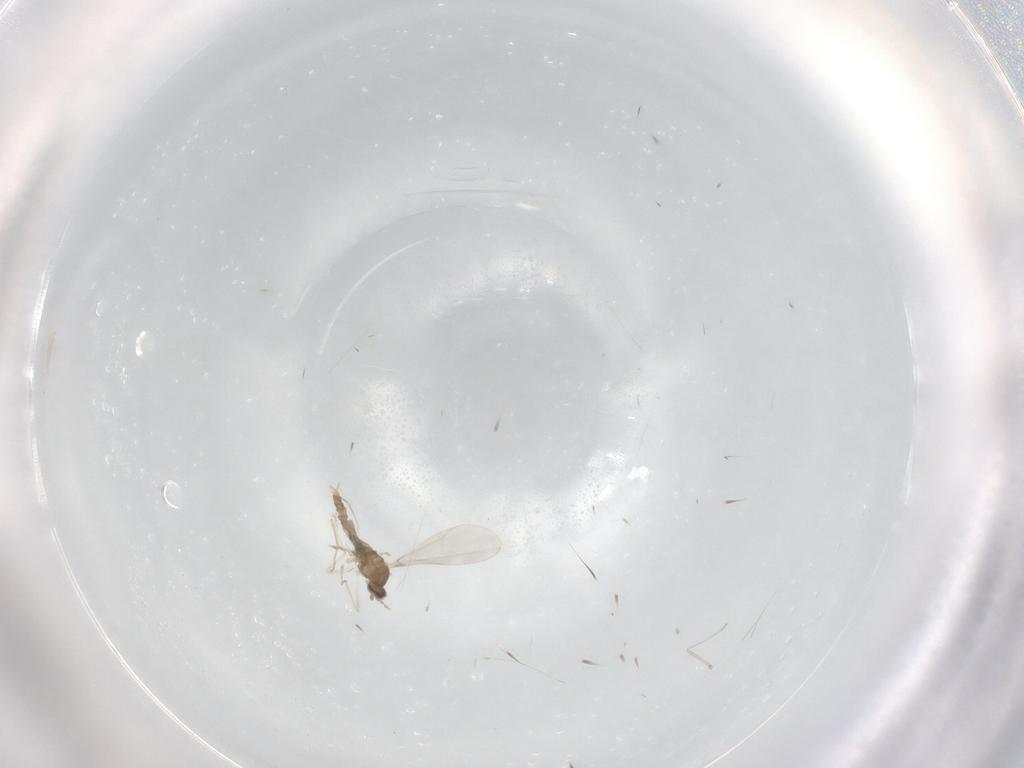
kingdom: Animalia
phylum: Arthropoda
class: Insecta
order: Diptera
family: Cecidomyiidae
